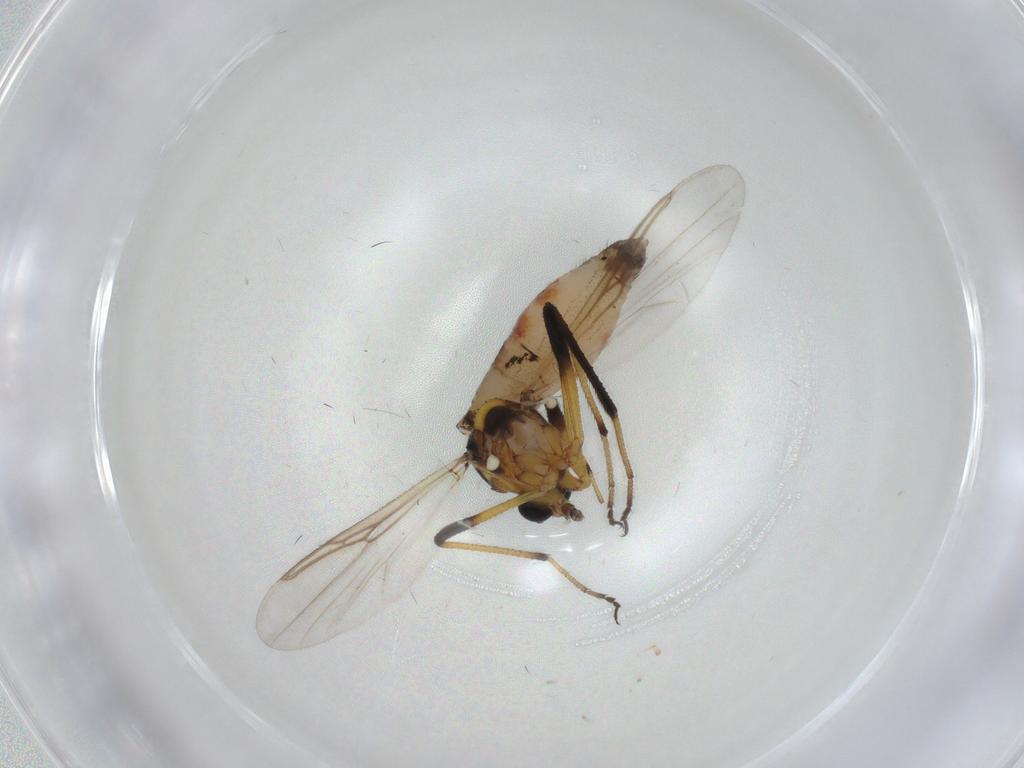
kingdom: Animalia
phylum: Arthropoda
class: Insecta
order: Diptera
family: Ceratopogonidae
